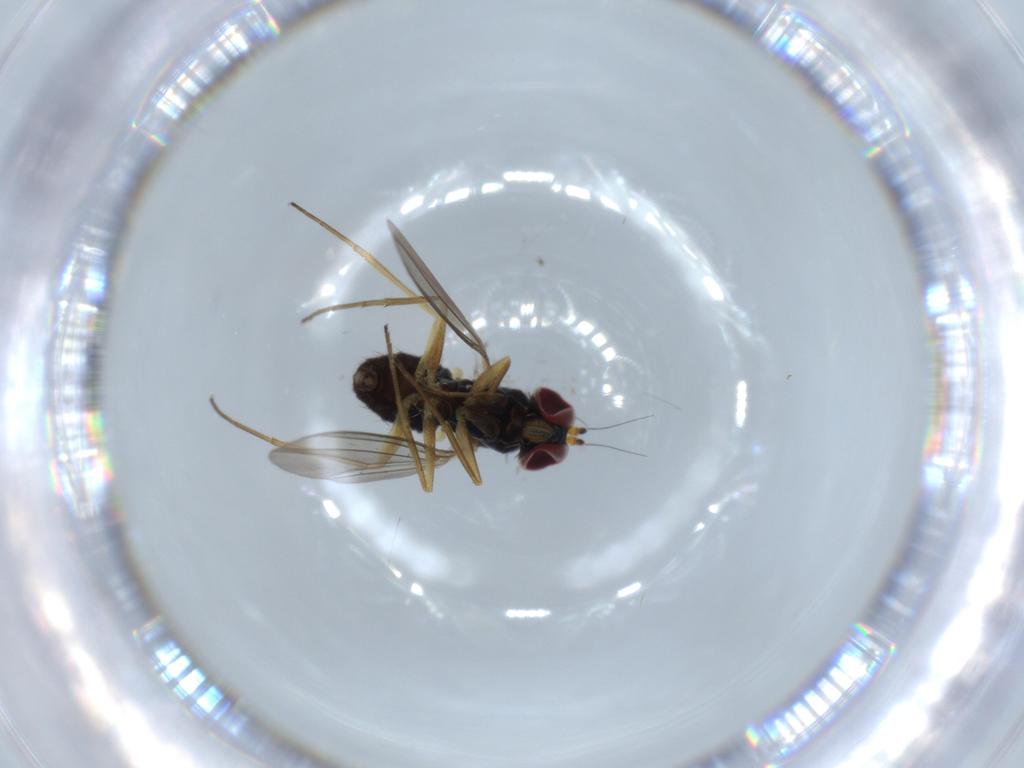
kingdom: Animalia
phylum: Arthropoda
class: Insecta
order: Diptera
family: Dolichopodidae
